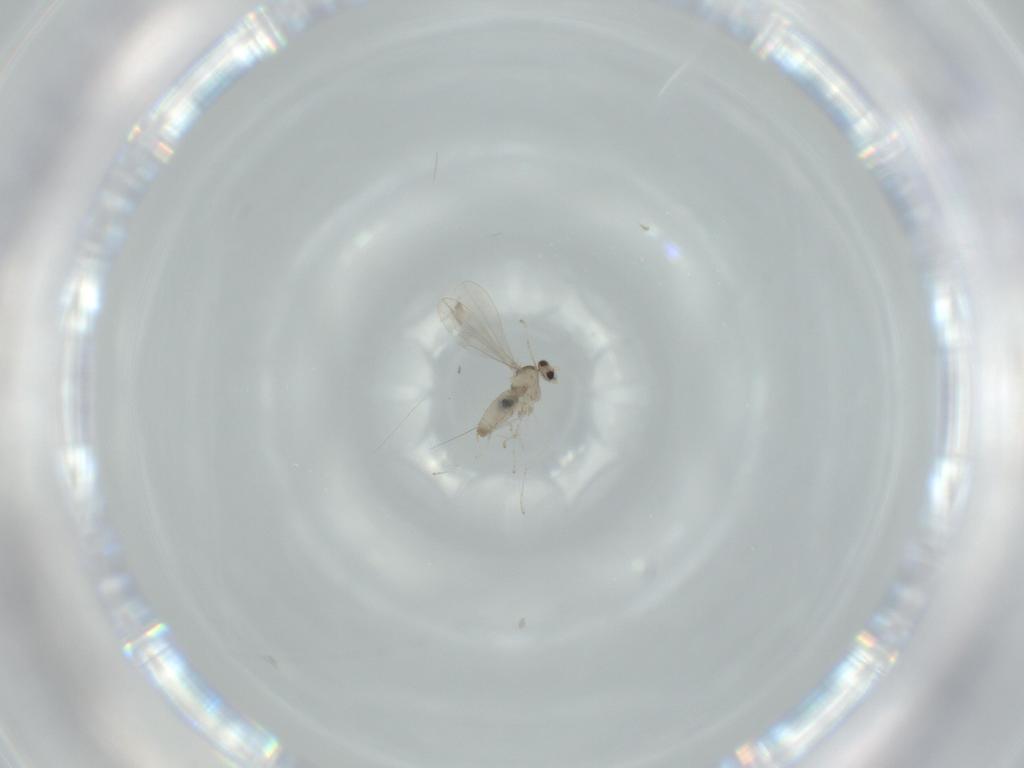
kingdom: Animalia
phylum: Arthropoda
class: Insecta
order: Diptera
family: Cecidomyiidae
